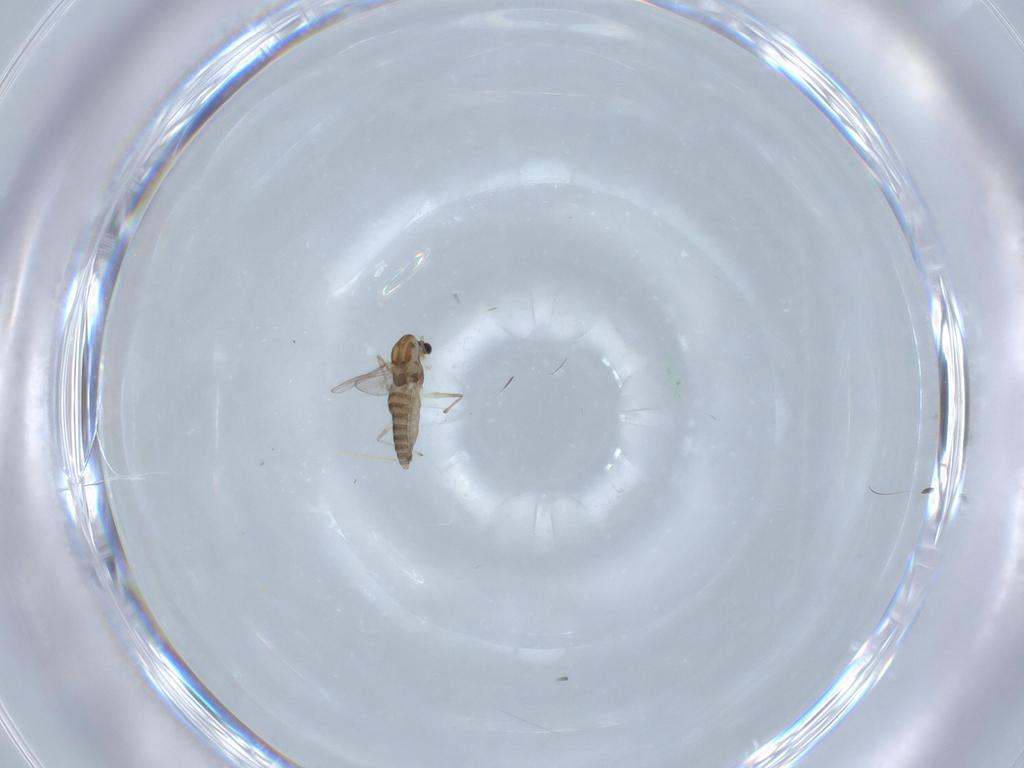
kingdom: Animalia
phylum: Arthropoda
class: Insecta
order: Diptera
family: Chironomidae
